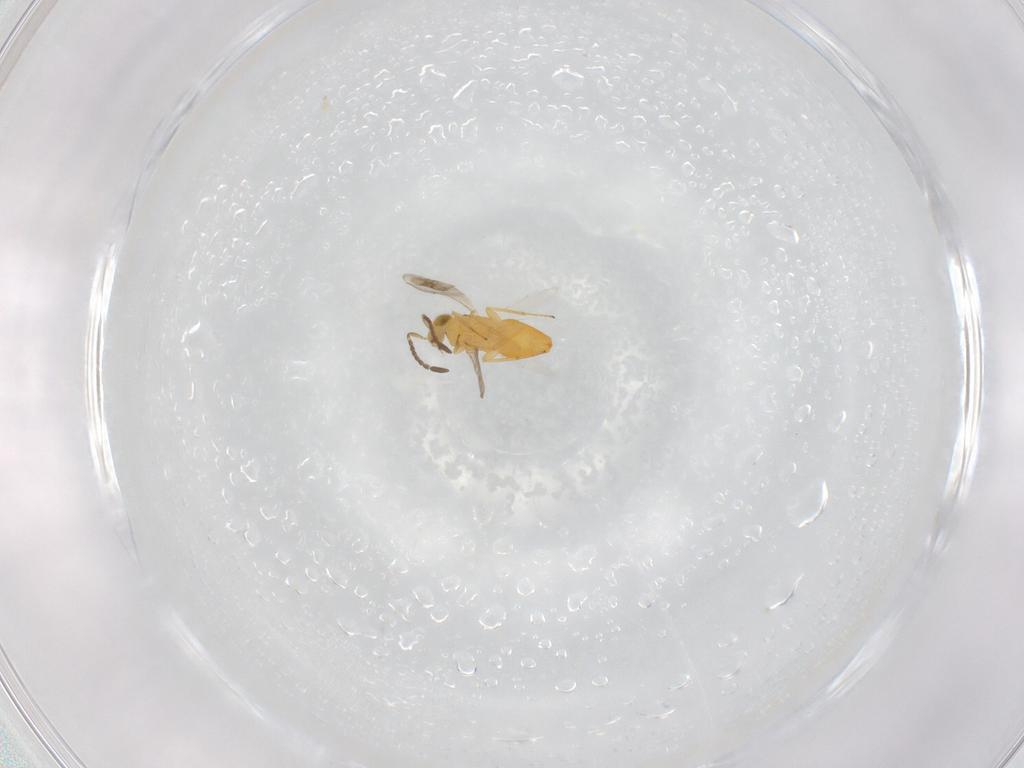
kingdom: Animalia
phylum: Arthropoda
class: Insecta
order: Hymenoptera
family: Encyrtidae
